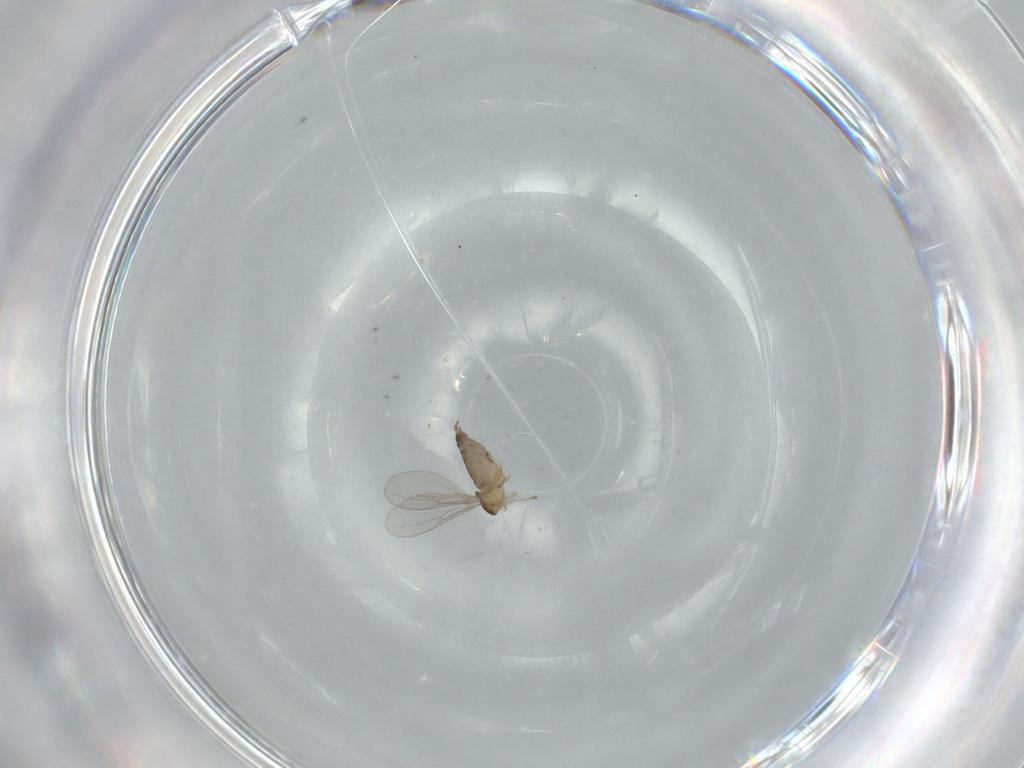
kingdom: Animalia
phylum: Arthropoda
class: Insecta
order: Diptera
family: Cecidomyiidae
